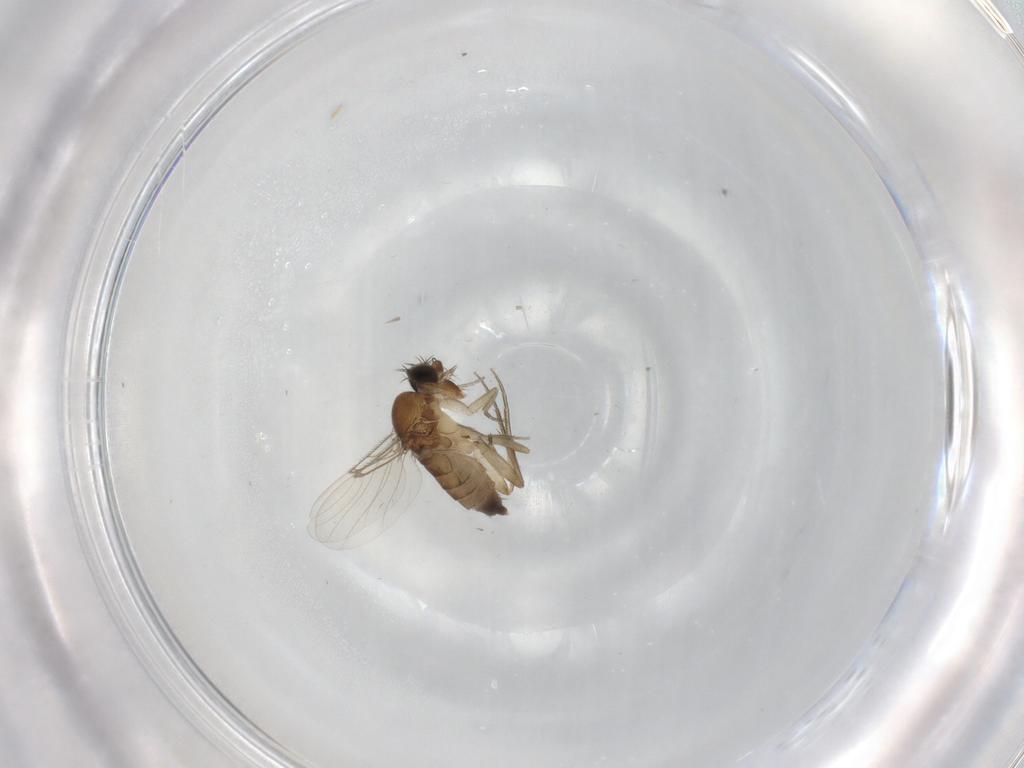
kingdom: Animalia
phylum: Arthropoda
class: Insecta
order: Diptera
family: Phoridae
